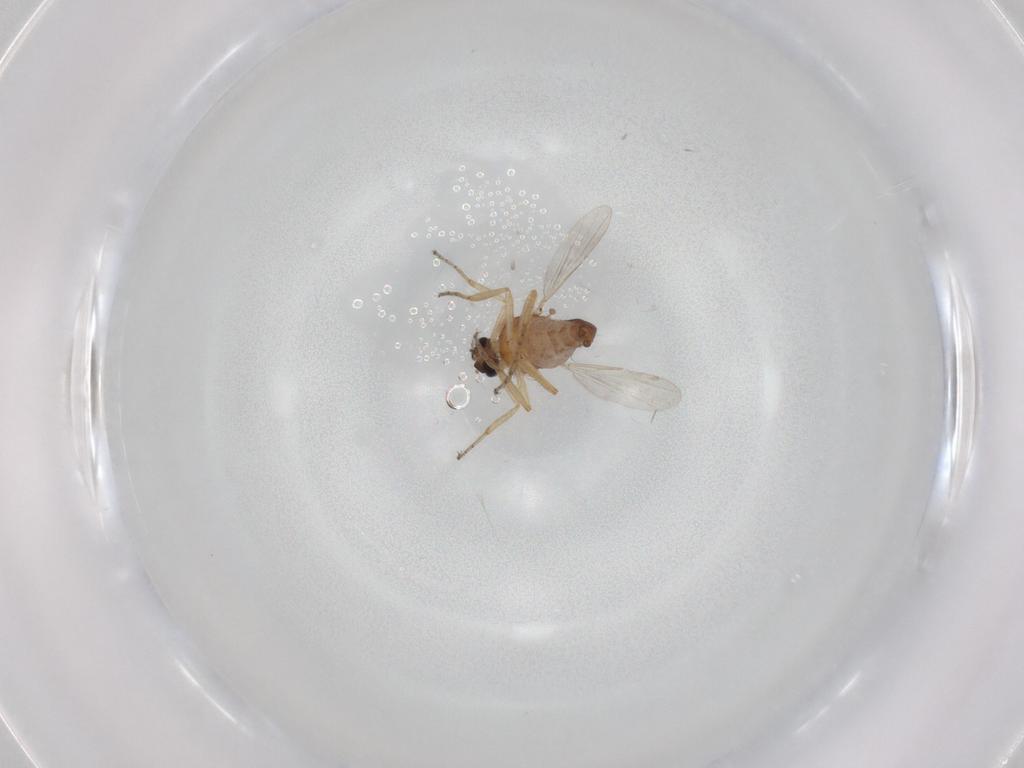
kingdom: Animalia
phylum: Arthropoda
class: Insecta
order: Diptera
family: Ceratopogonidae
